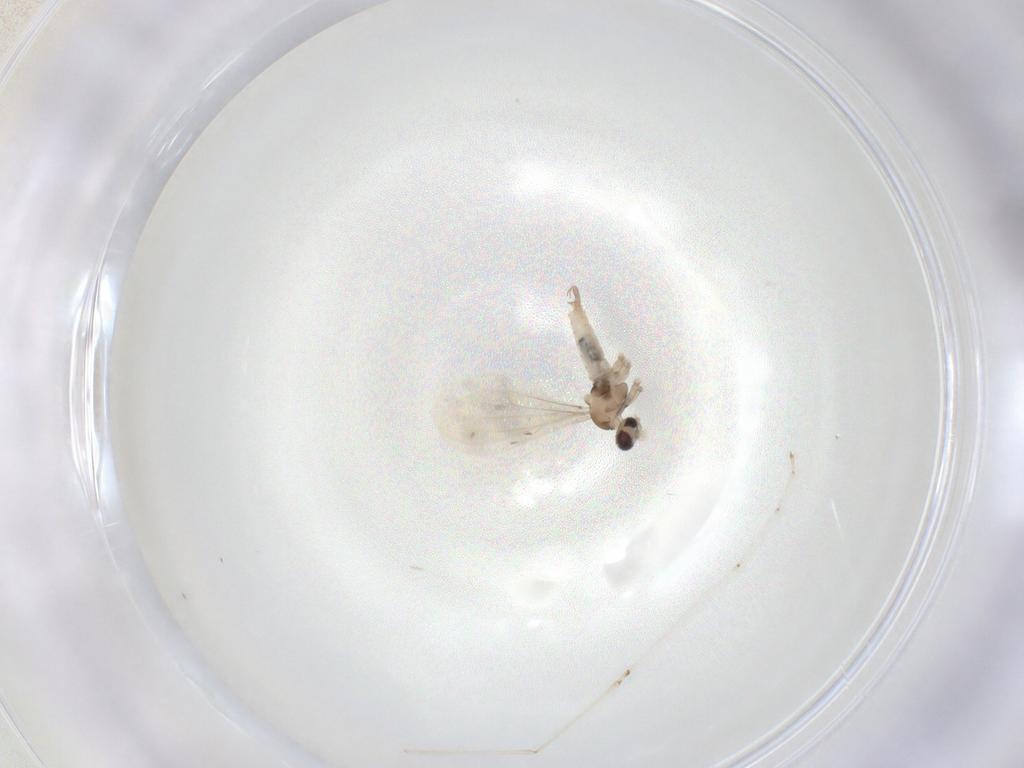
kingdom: Animalia
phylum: Arthropoda
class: Insecta
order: Diptera
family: Cecidomyiidae
